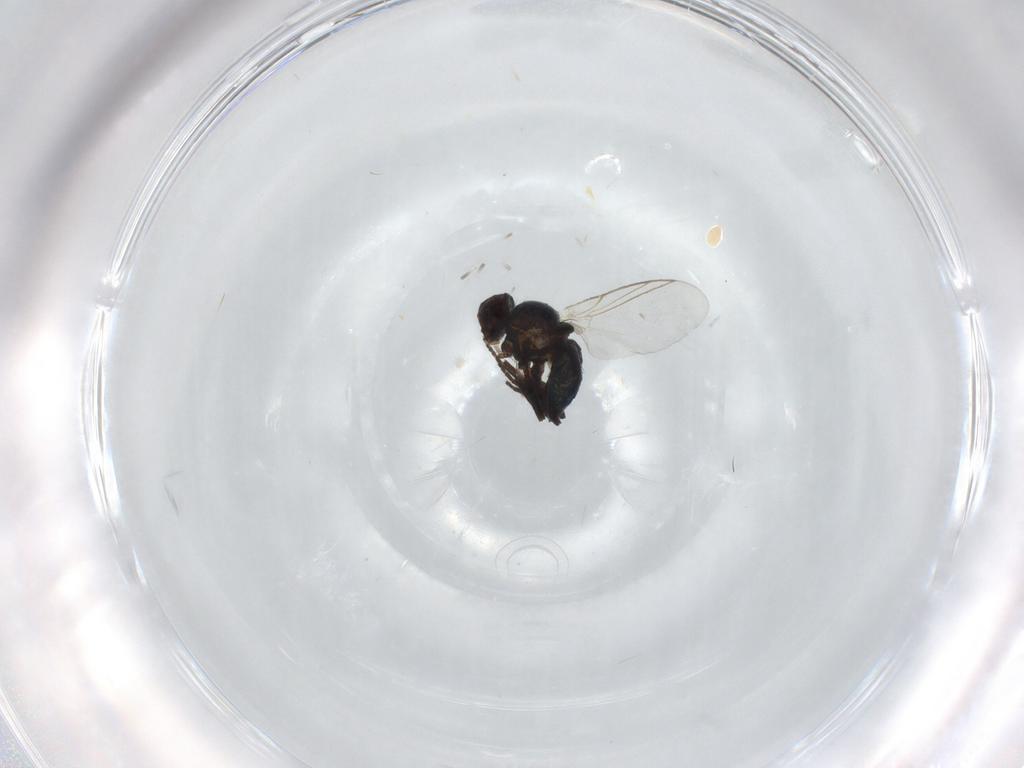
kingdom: Animalia
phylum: Arthropoda
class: Insecta
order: Diptera
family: Agromyzidae
